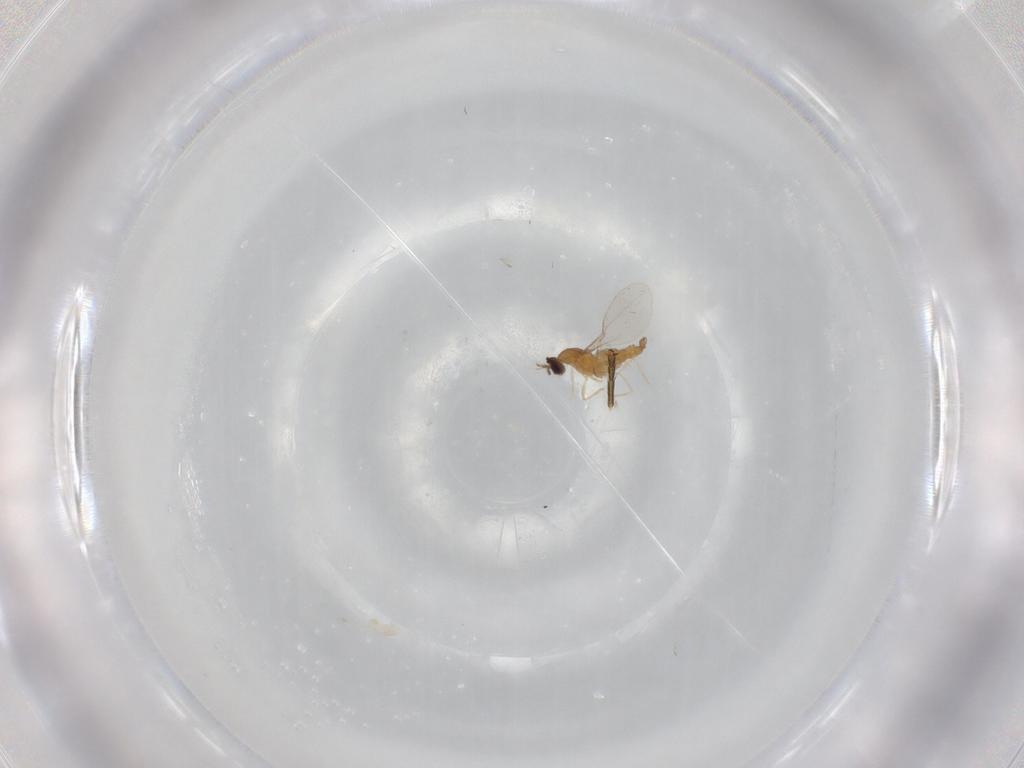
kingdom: Animalia
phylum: Arthropoda
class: Insecta
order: Diptera
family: Phoridae
